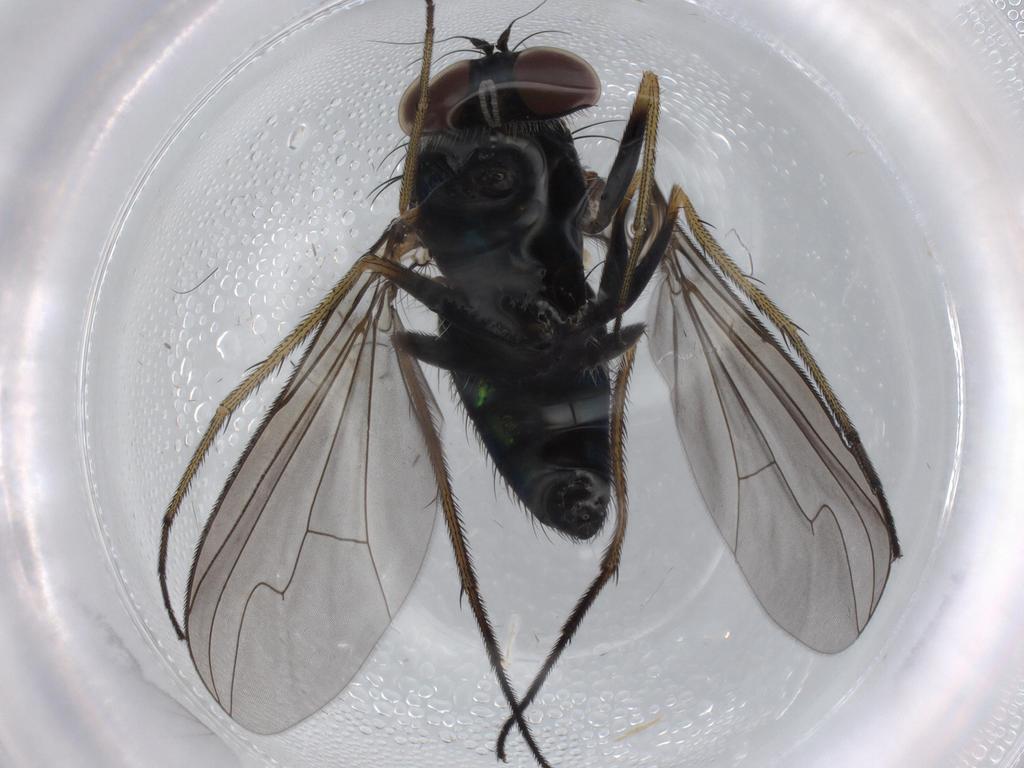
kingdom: Animalia
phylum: Arthropoda
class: Insecta
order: Diptera
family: Dolichopodidae
